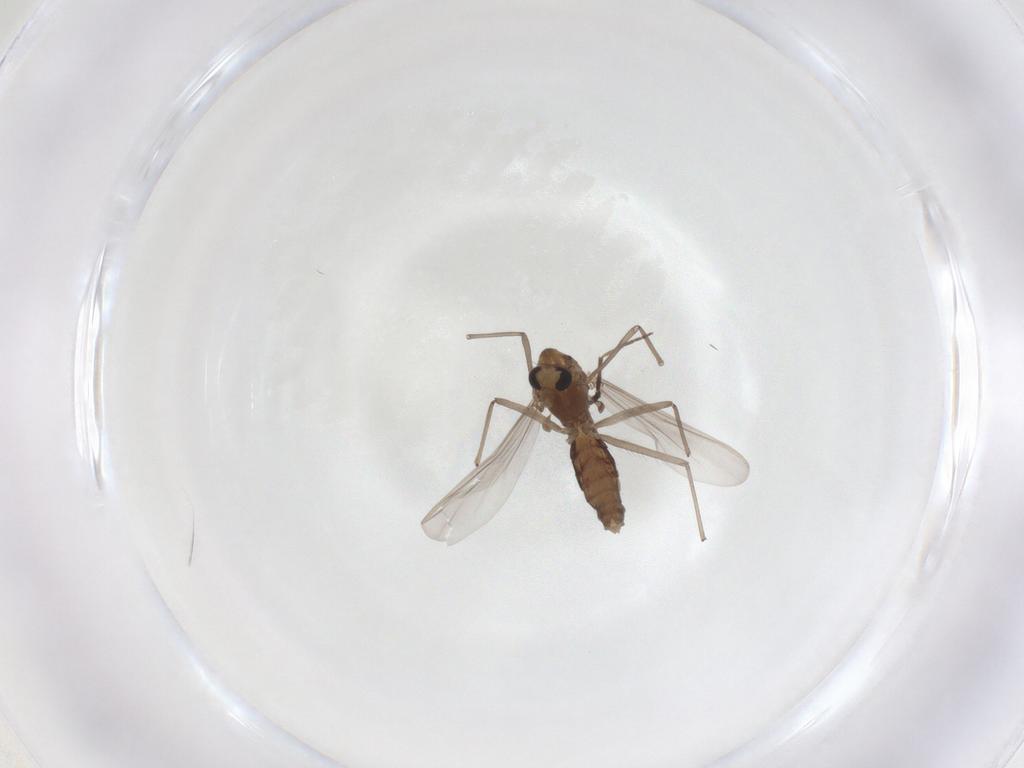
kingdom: Animalia
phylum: Arthropoda
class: Insecta
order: Diptera
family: Chironomidae
